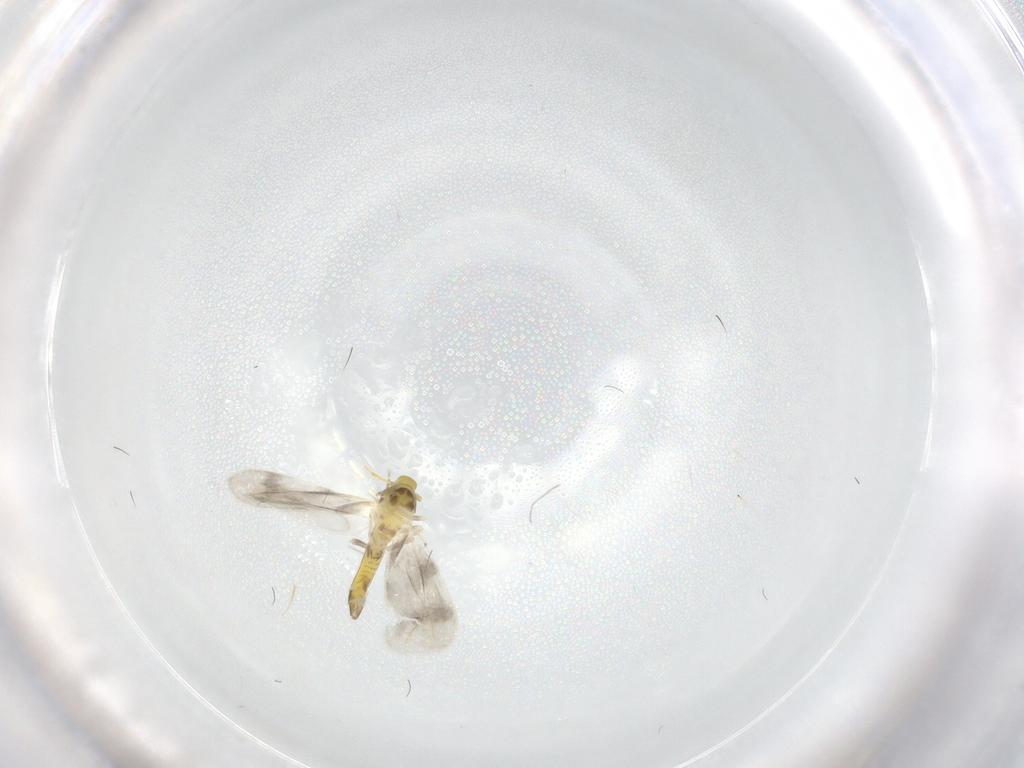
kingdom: Animalia
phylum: Arthropoda
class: Insecta
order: Hemiptera
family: Aleyrodidae
